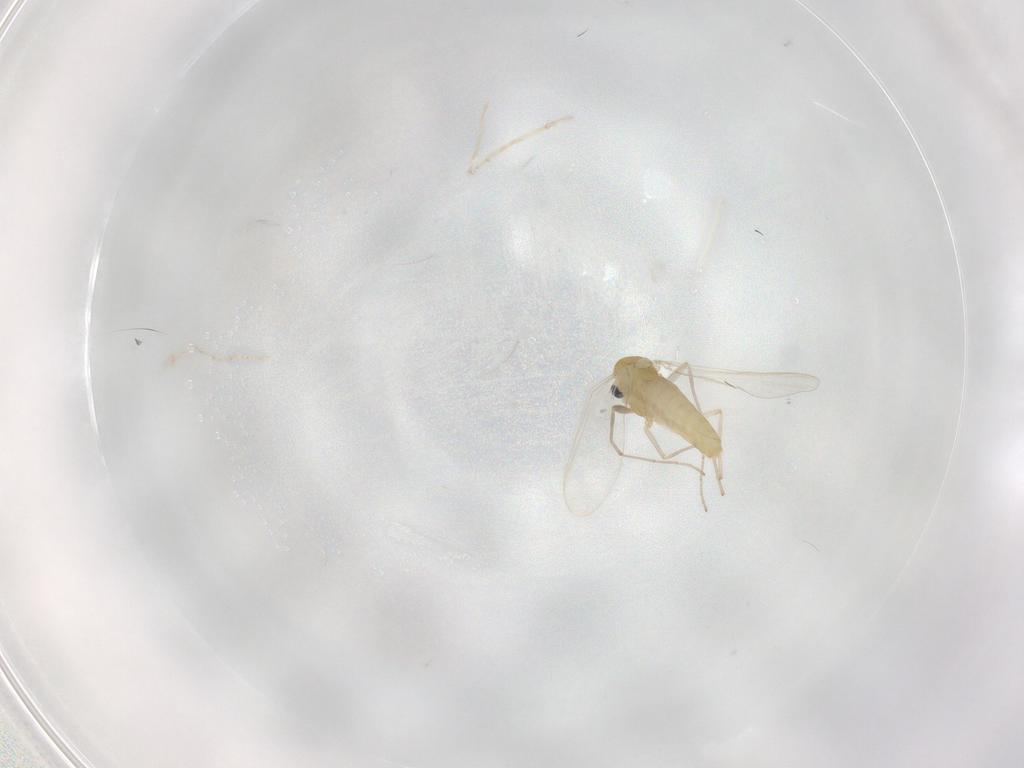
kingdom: Animalia
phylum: Arthropoda
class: Insecta
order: Diptera
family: Chironomidae
